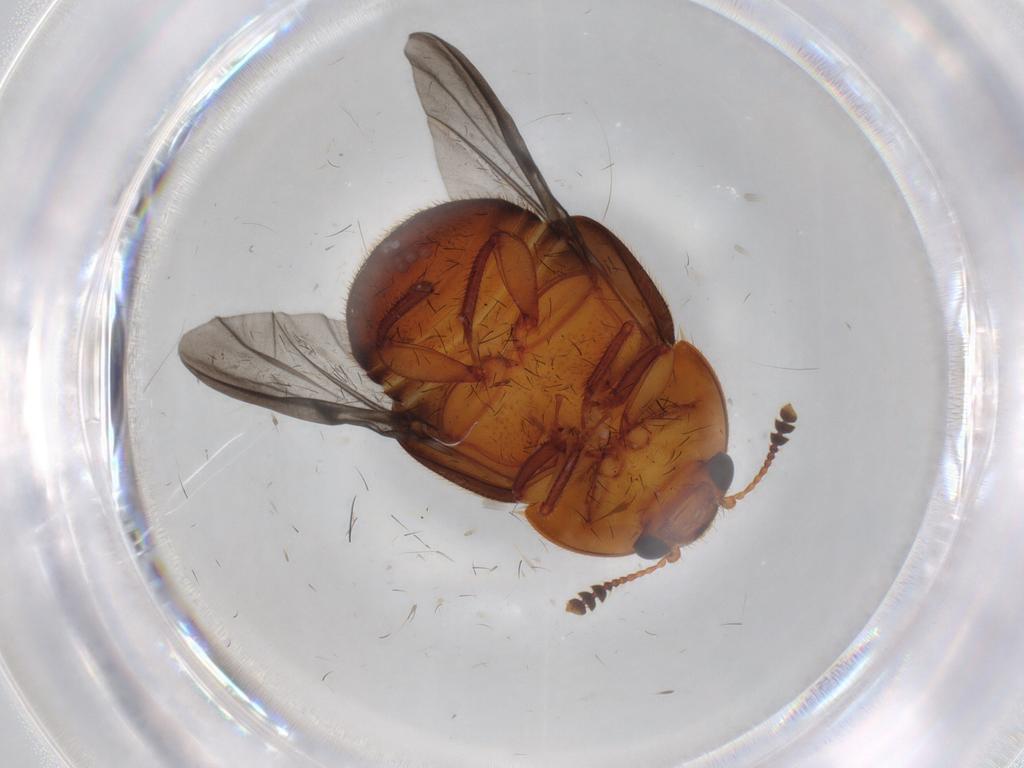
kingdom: Animalia
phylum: Arthropoda
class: Insecta
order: Coleoptera
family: Nitidulidae
